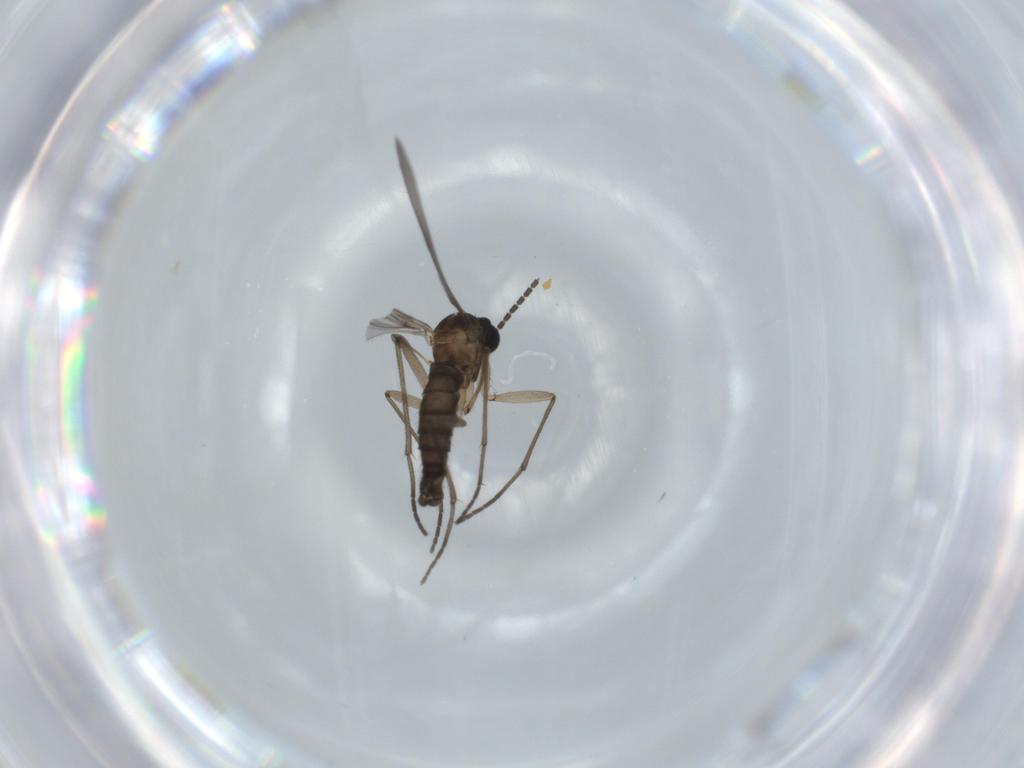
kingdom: Animalia
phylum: Arthropoda
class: Insecta
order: Diptera
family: Sciaridae
